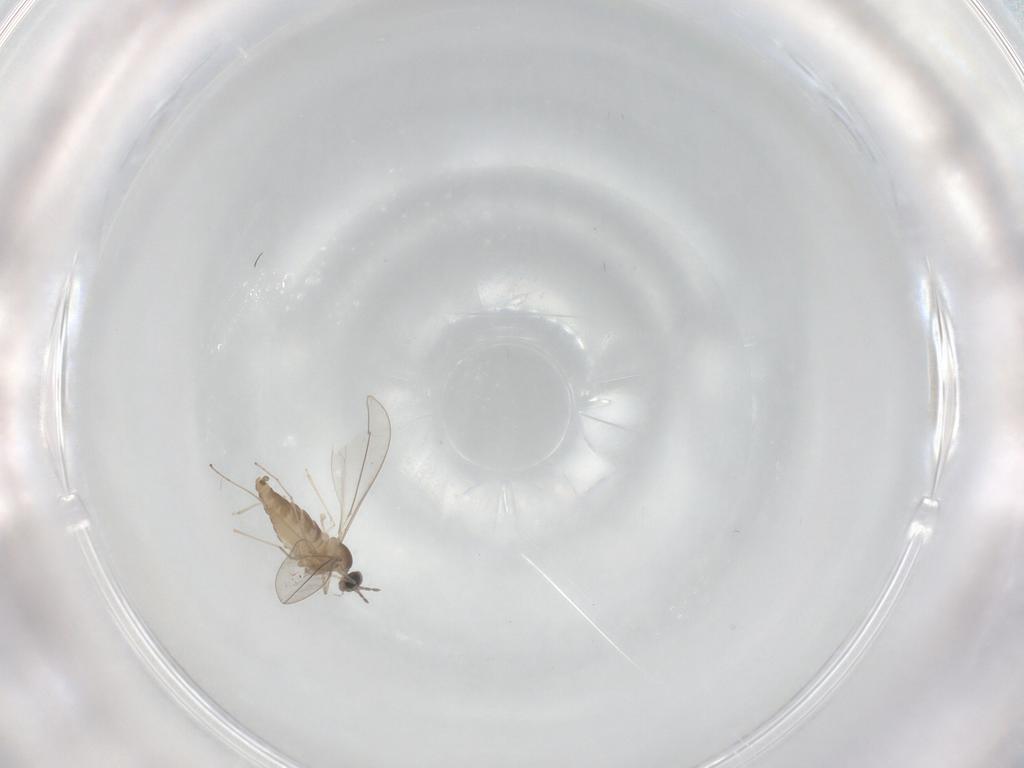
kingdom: Animalia
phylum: Arthropoda
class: Insecta
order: Diptera
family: Cecidomyiidae
